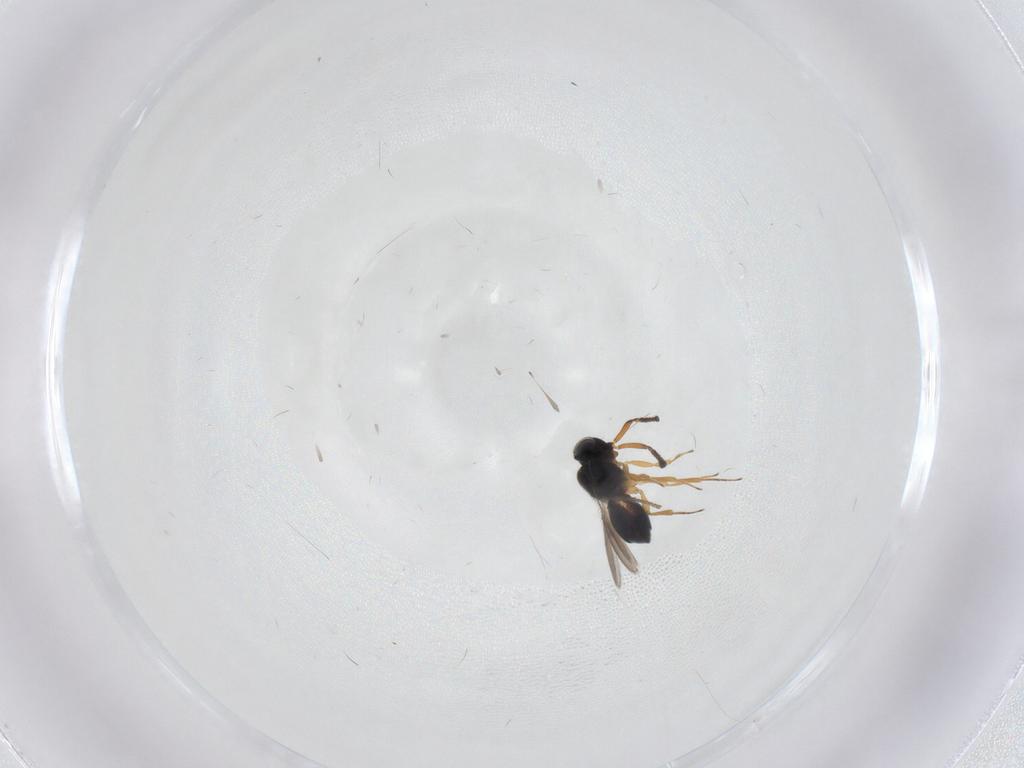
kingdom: Animalia
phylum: Arthropoda
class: Insecta
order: Hymenoptera
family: Scelionidae
